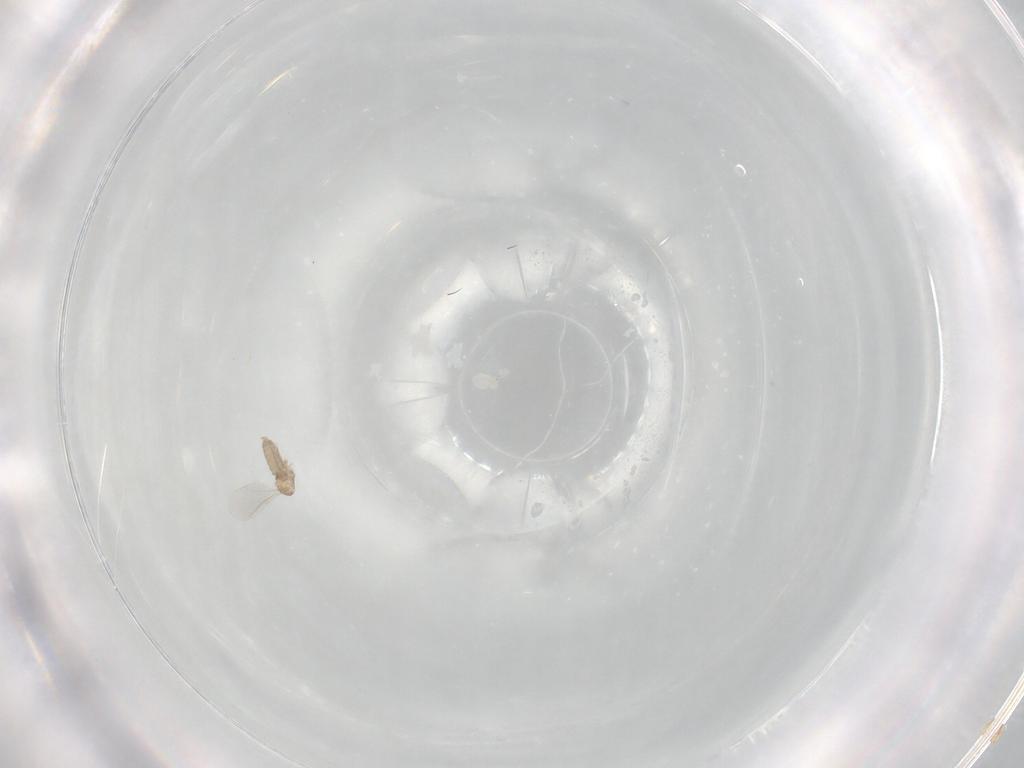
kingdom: Animalia
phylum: Arthropoda
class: Insecta
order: Diptera
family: Cecidomyiidae
